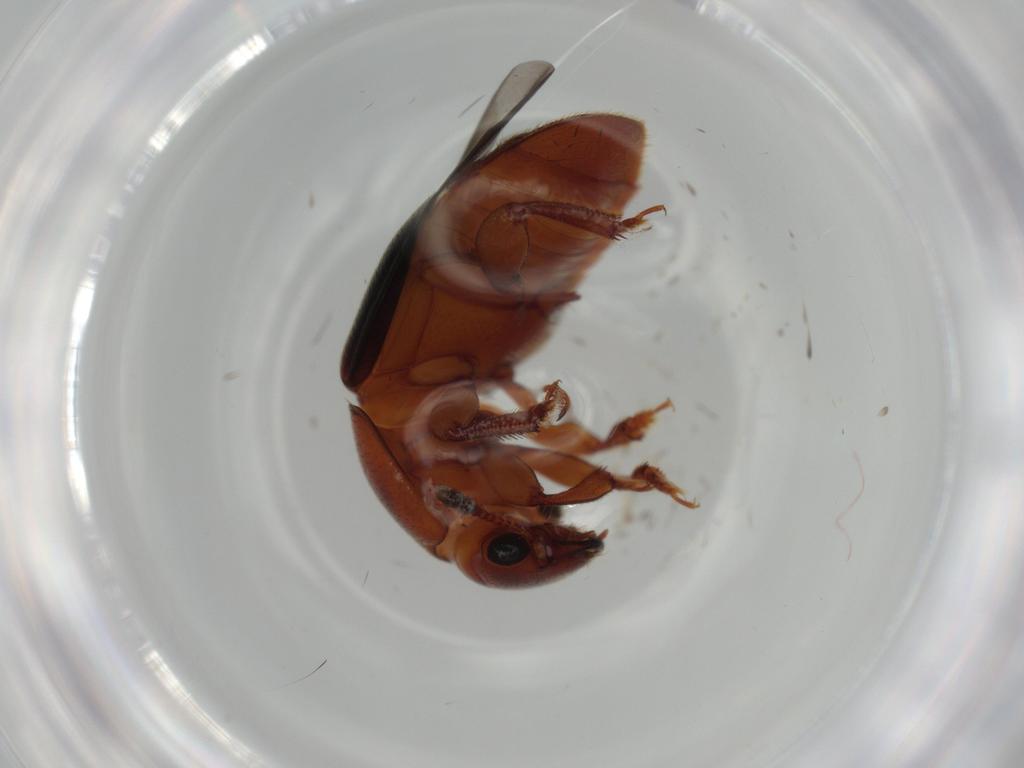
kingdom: Animalia
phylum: Arthropoda
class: Insecta
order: Coleoptera
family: Nitidulidae
